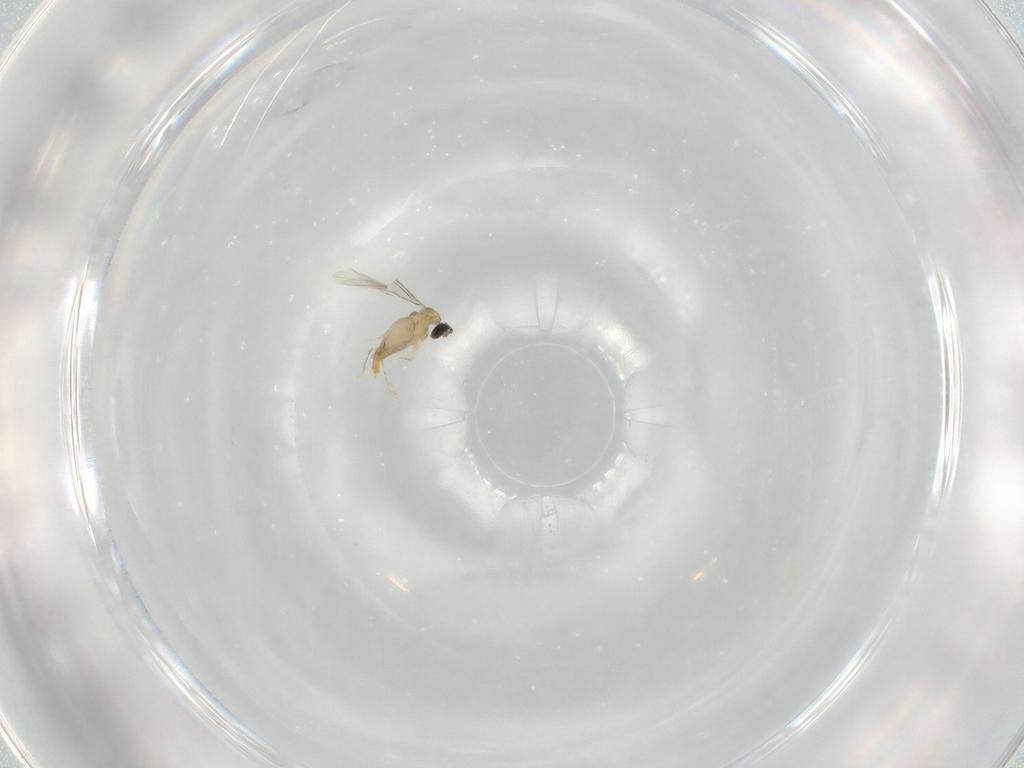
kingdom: Animalia
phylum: Arthropoda
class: Insecta
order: Diptera
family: Cecidomyiidae
